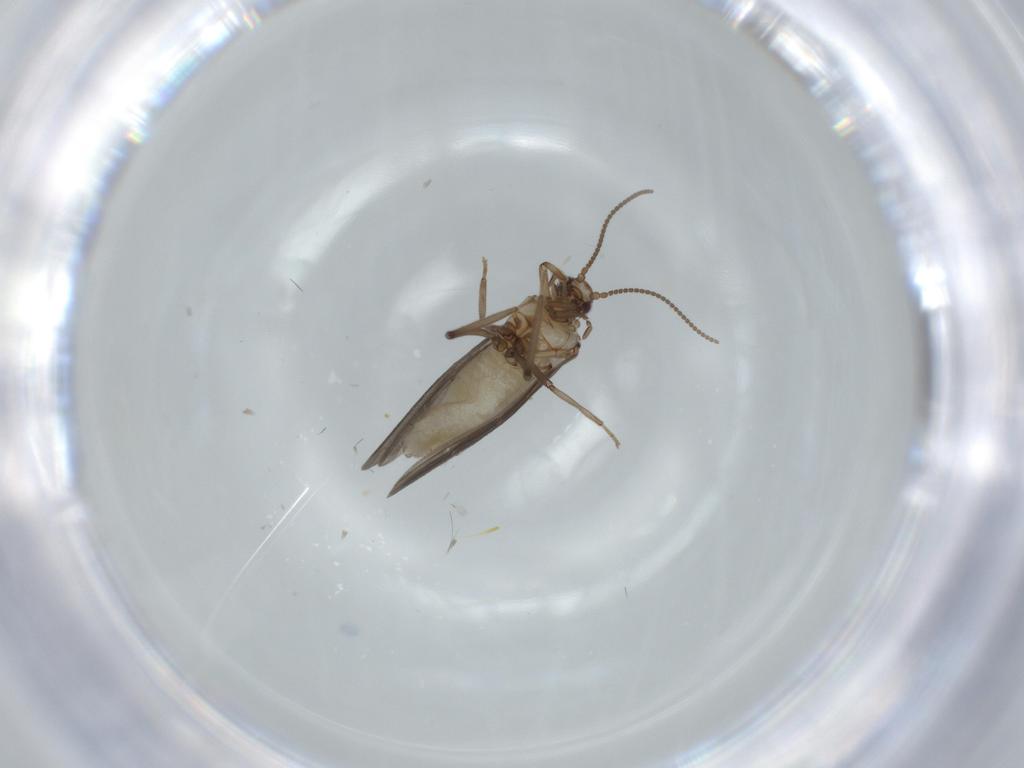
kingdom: Animalia
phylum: Arthropoda
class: Insecta
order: Neuroptera
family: Coniopterygidae
